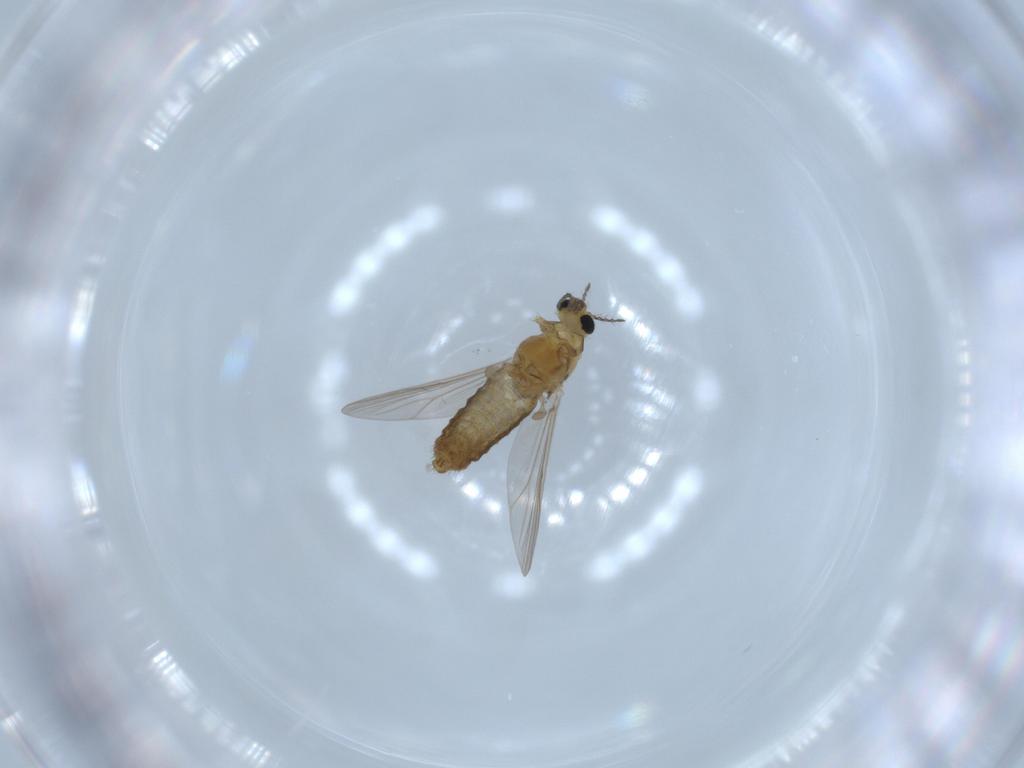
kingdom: Animalia
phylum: Arthropoda
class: Insecta
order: Diptera
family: Chironomidae
